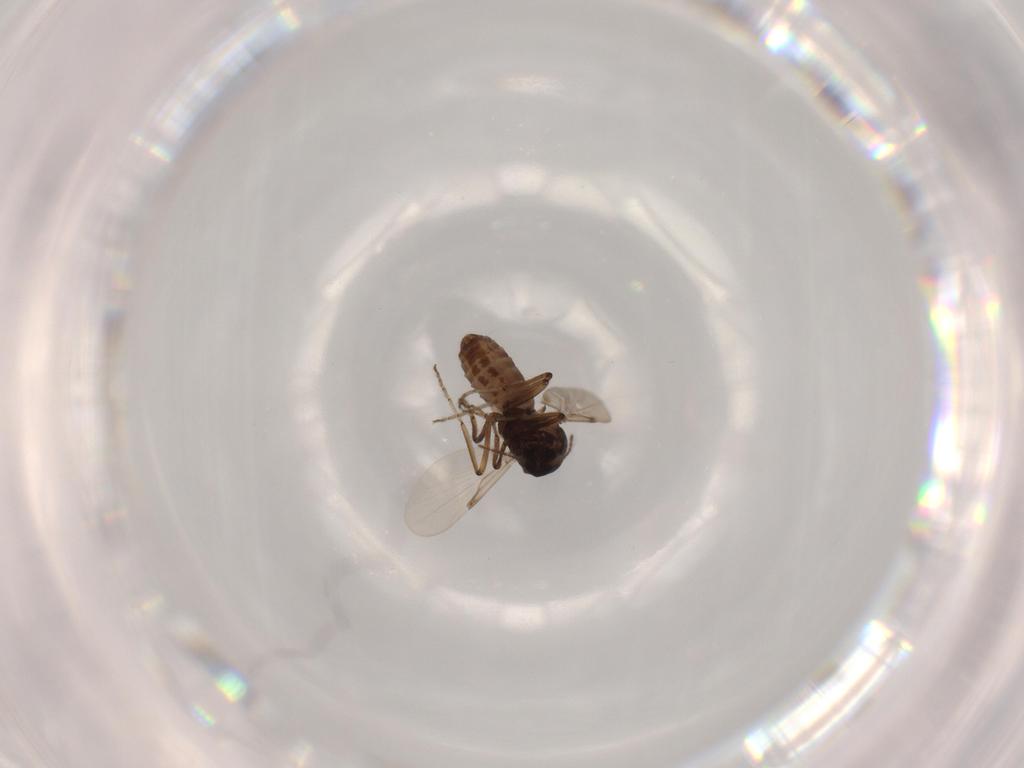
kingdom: Animalia
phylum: Arthropoda
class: Insecta
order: Diptera
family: Chironomidae
